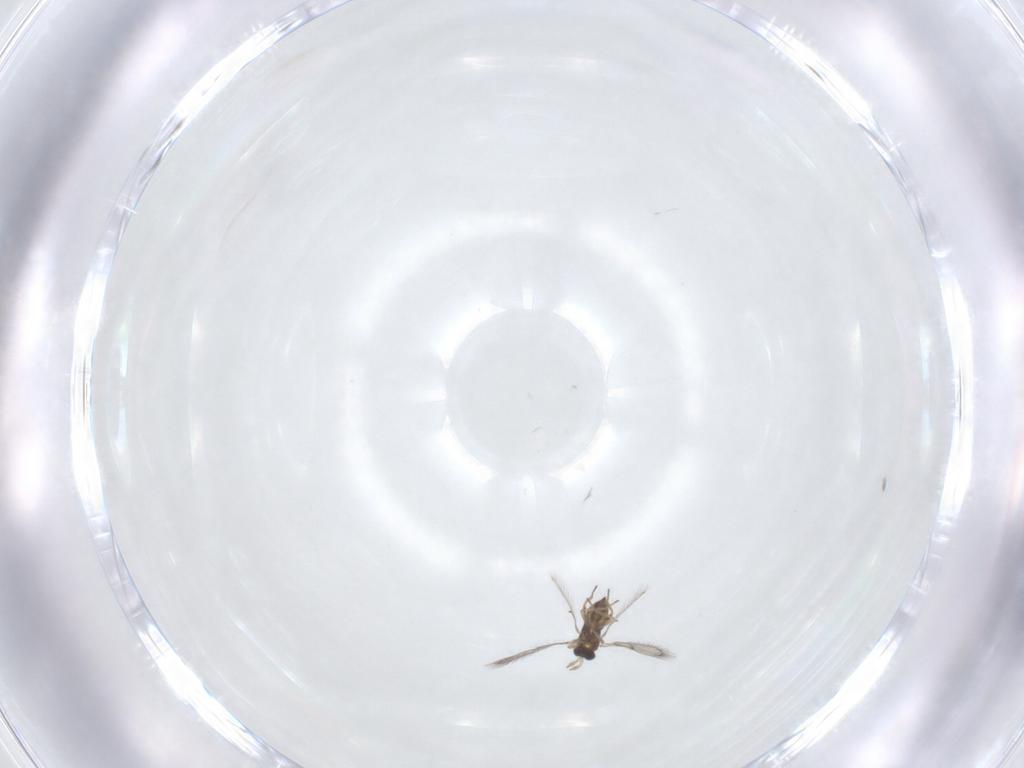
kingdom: Animalia
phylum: Arthropoda
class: Insecta
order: Hymenoptera
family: Trichogrammatidae
